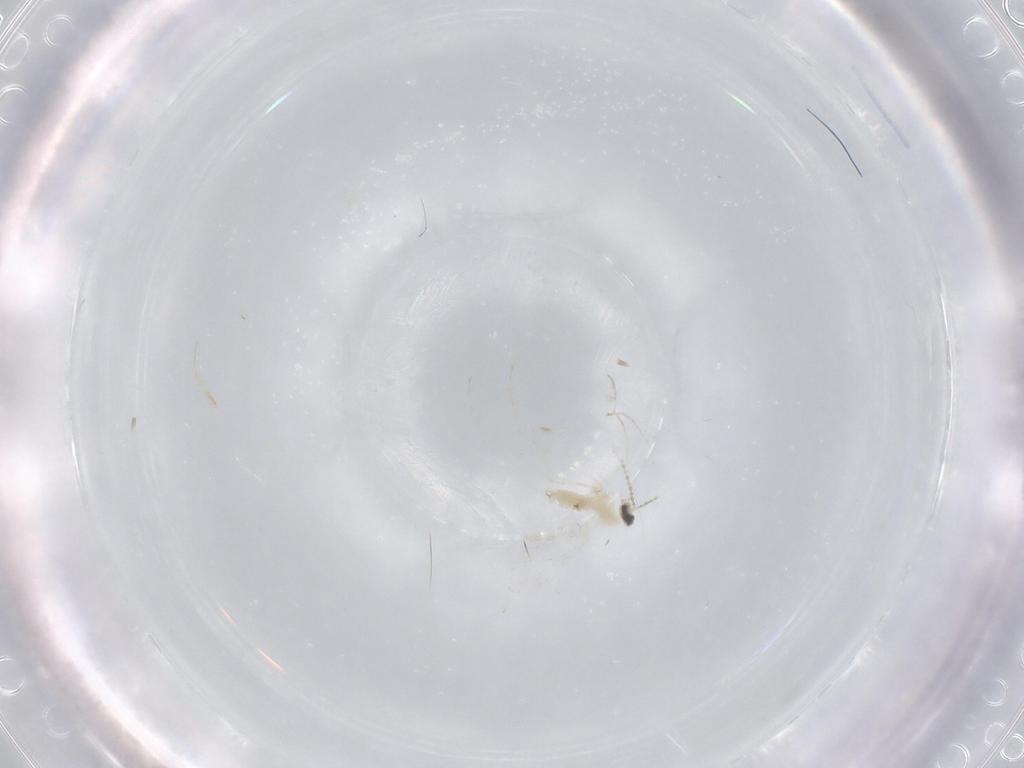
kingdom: Animalia
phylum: Arthropoda
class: Insecta
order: Diptera
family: Cecidomyiidae
